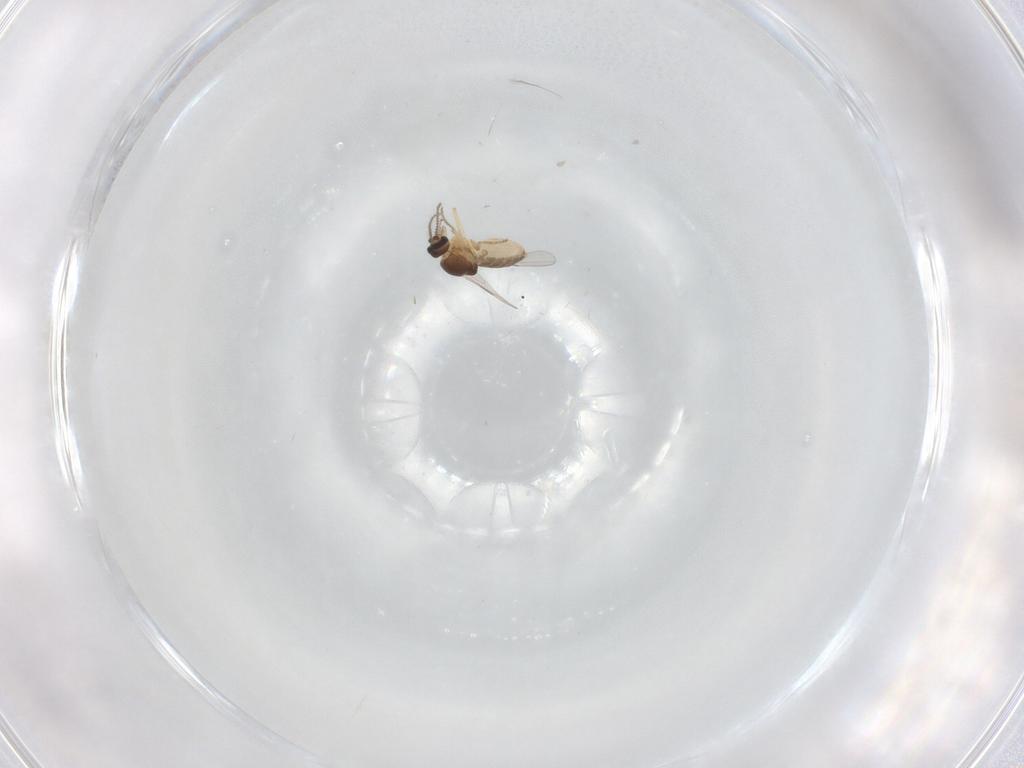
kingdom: Animalia
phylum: Arthropoda
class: Insecta
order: Diptera
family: Ceratopogonidae
